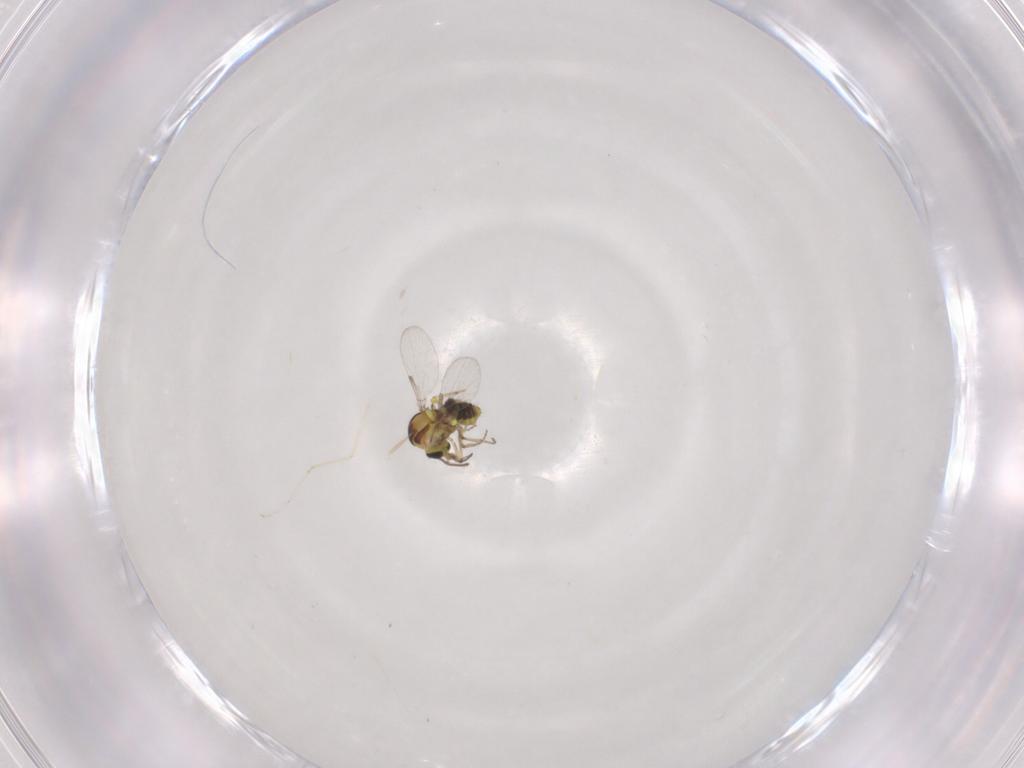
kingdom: Animalia
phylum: Arthropoda
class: Insecta
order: Diptera
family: Ceratopogonidae
